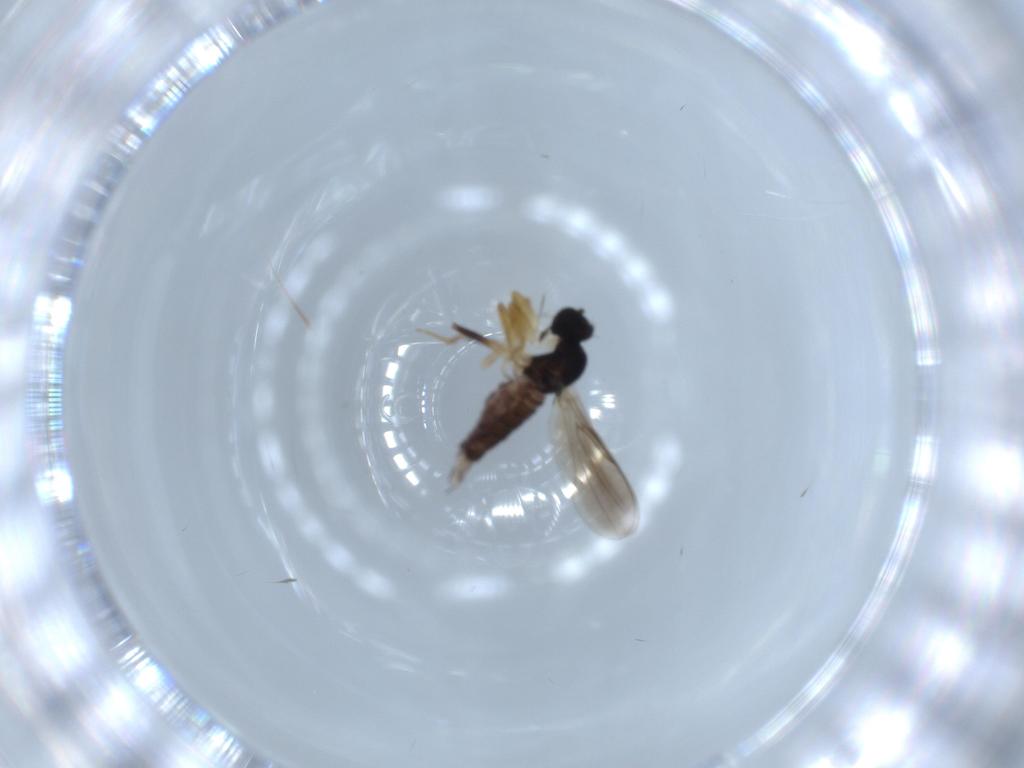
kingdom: Animalia
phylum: Arthropoda
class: Insecta
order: Diptera
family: Hybotidae
